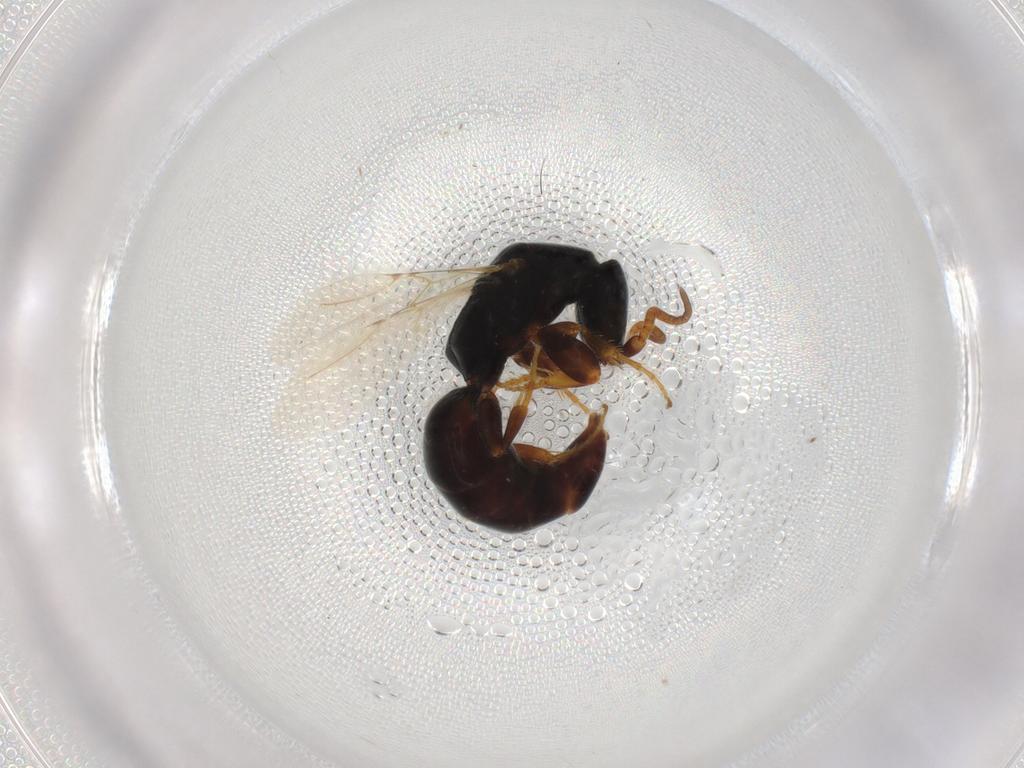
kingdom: Animalia
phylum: Arthropoda
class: Insecta
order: Hymenoptera
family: Bethylidae
